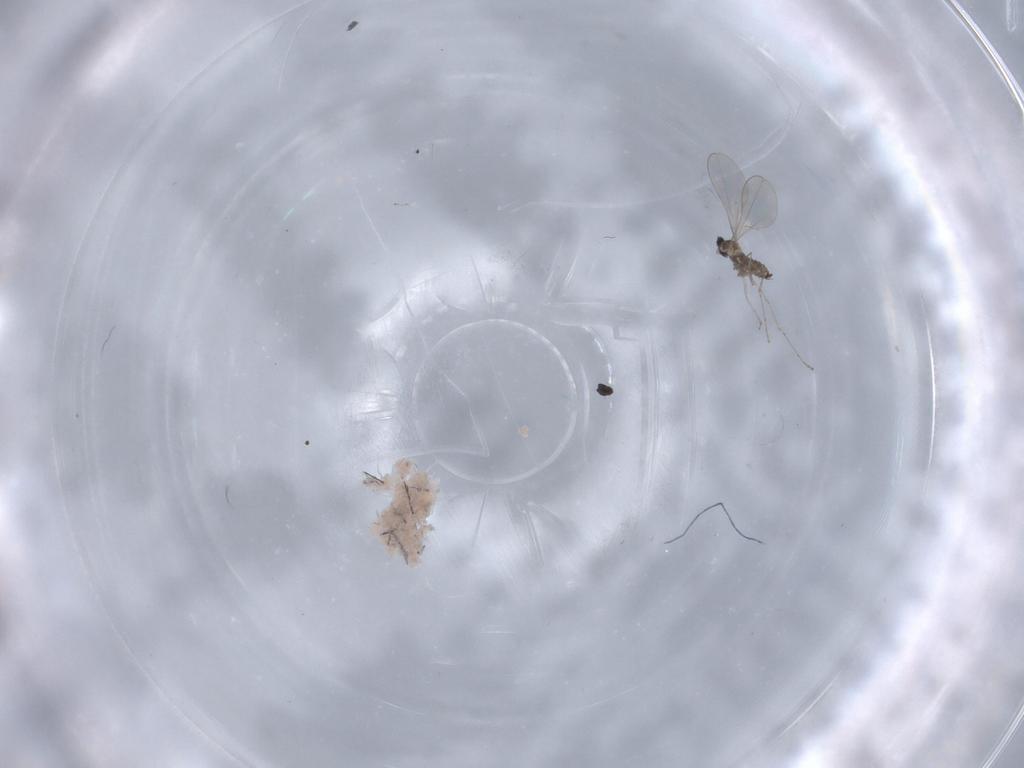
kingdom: Animalia
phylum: Arthropoda
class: Insecta
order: Diptera
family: Cecidomyiidae
